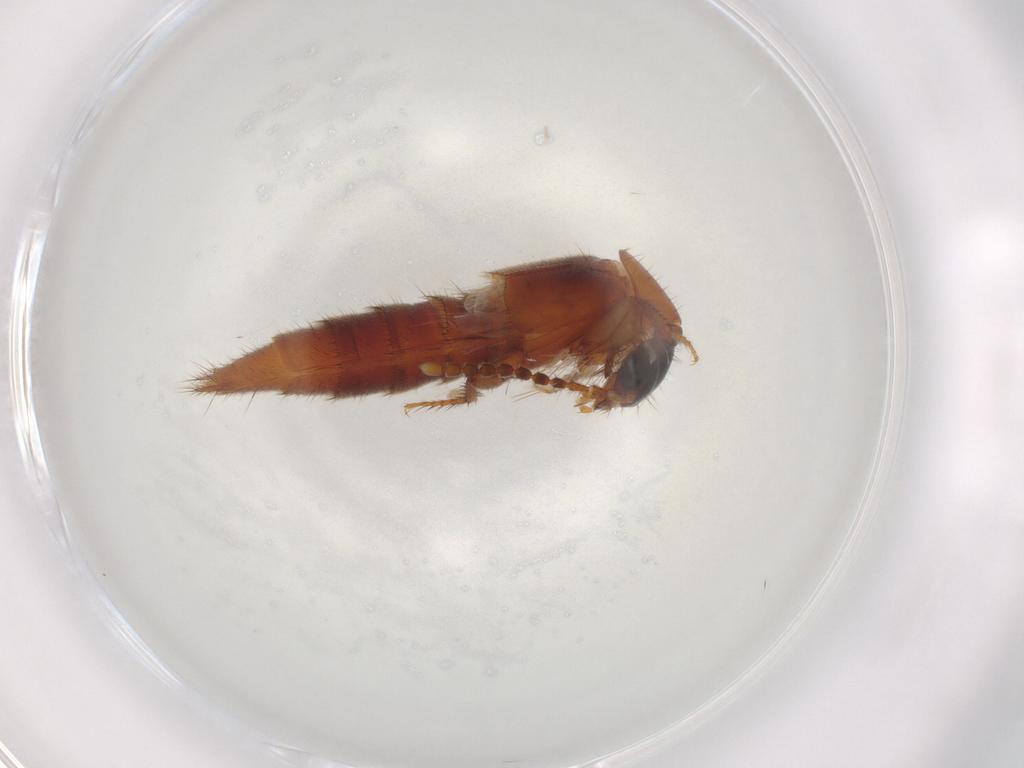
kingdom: Animalia
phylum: Arthropoda
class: Insecta
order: Coleoptera
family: Staphylinidae
